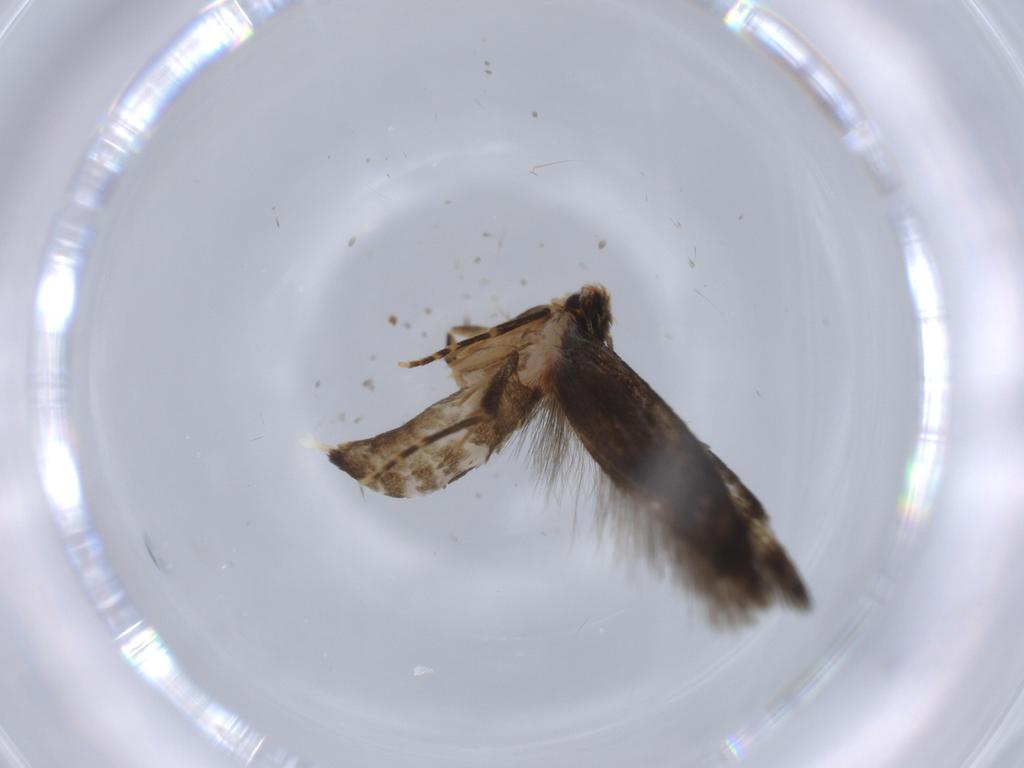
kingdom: Animalia
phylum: Arthropoda
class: Insecta
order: Lepidoptera
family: Tineidae
